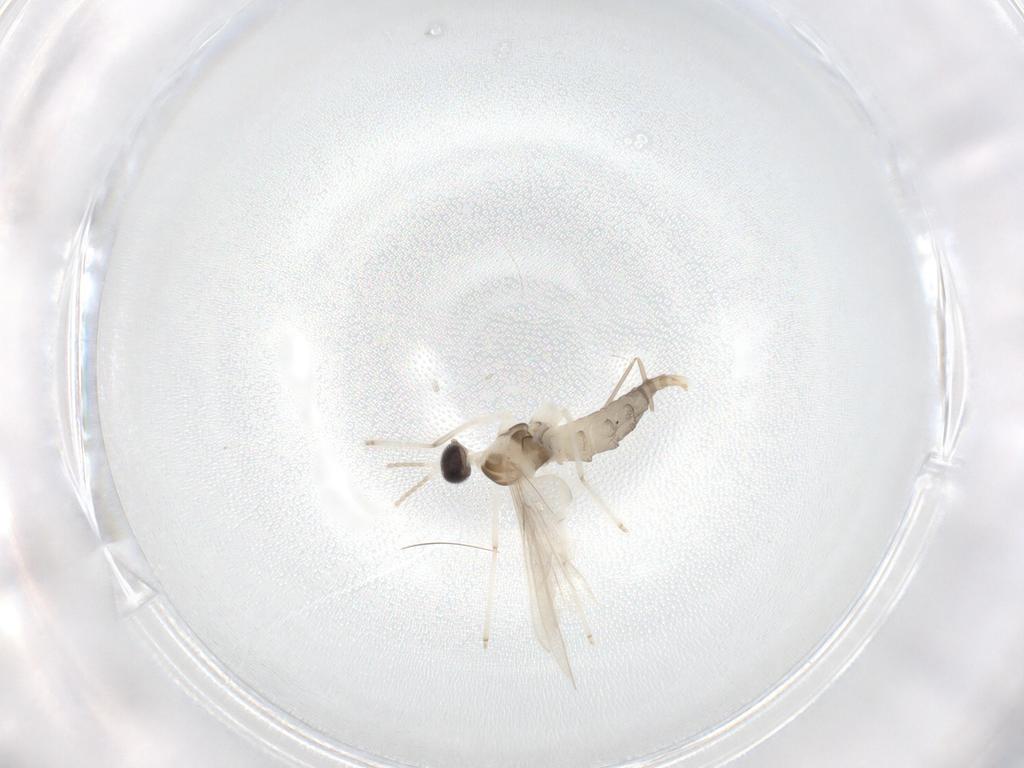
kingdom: Animalia
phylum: Arthropoda
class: Insecta
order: Diptera
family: Cecidomyiidae
